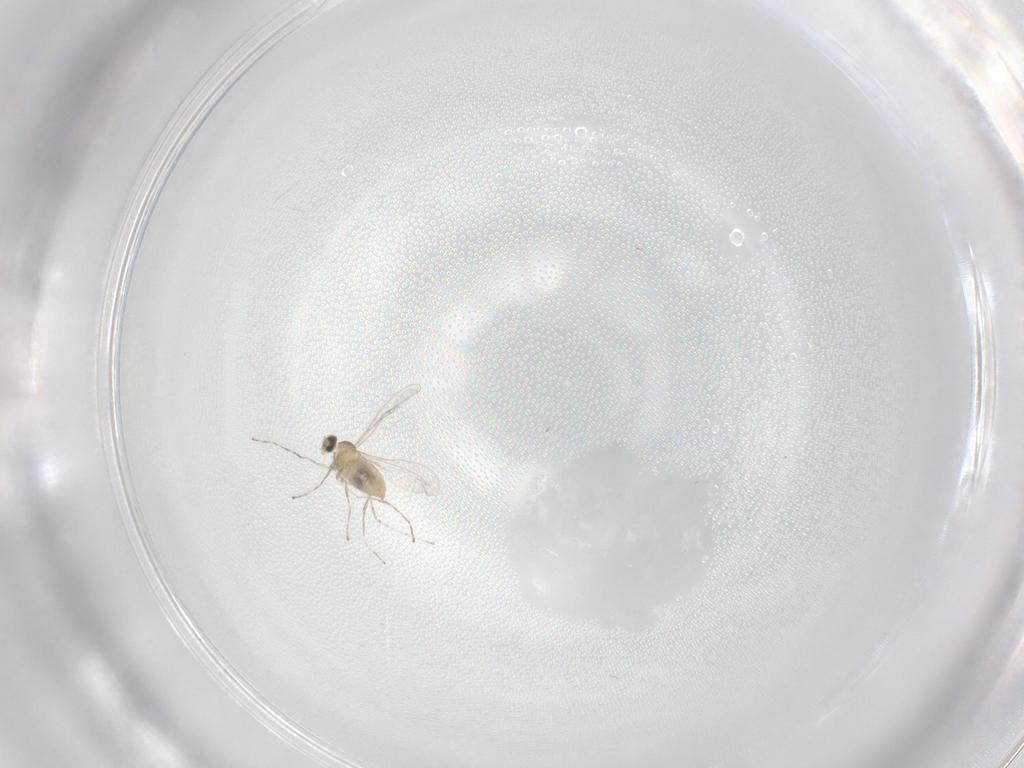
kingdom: Animalia
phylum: Arthropoda
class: Insecta
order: Diptera
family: Cecidomyiidae
